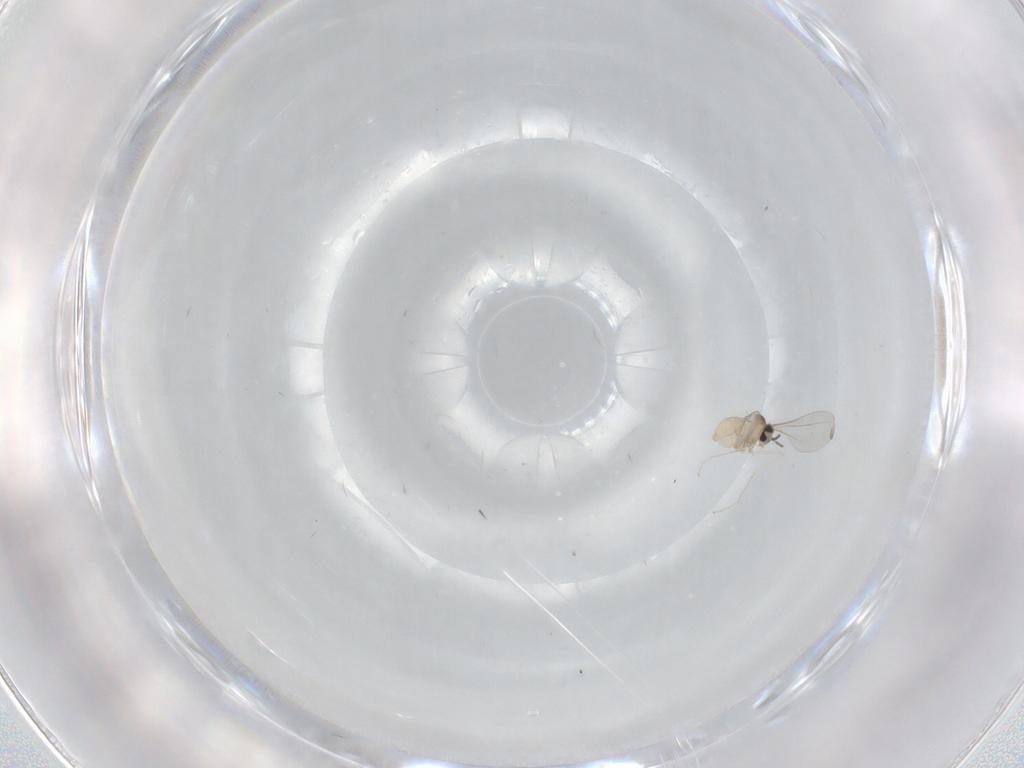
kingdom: Animalia
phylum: Arthropoda
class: Insecta
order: Diptera
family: Cecidomyiidae
